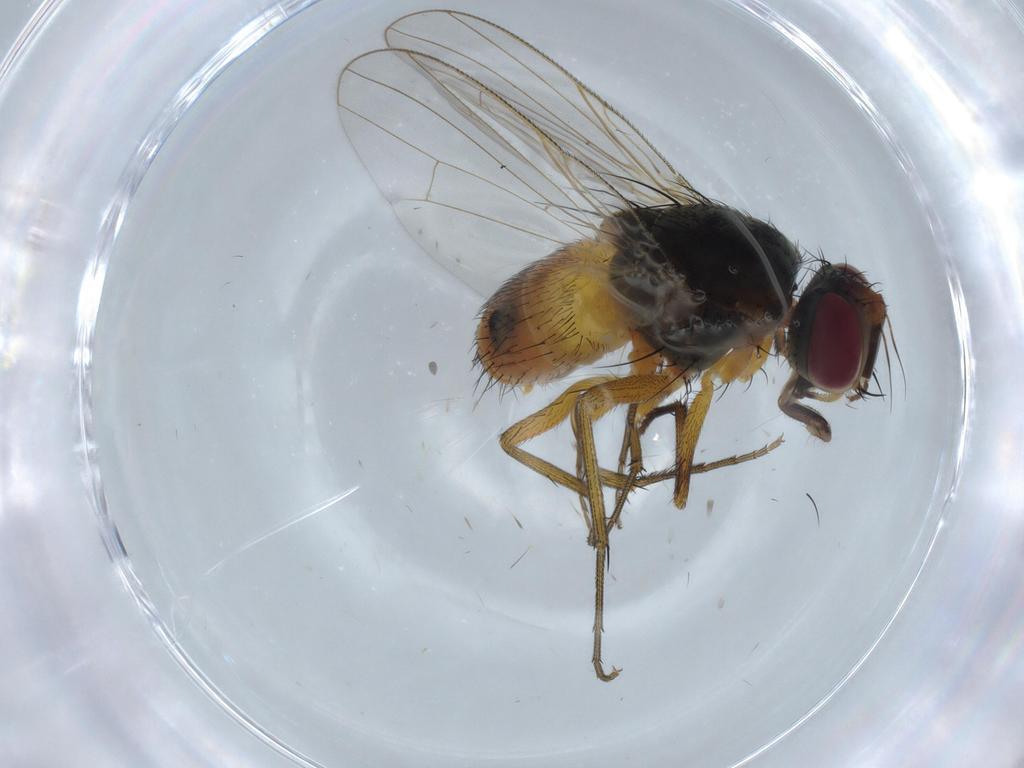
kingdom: Animalia
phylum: Arthropoda
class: Insecta
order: Diptera
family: Muscidae
